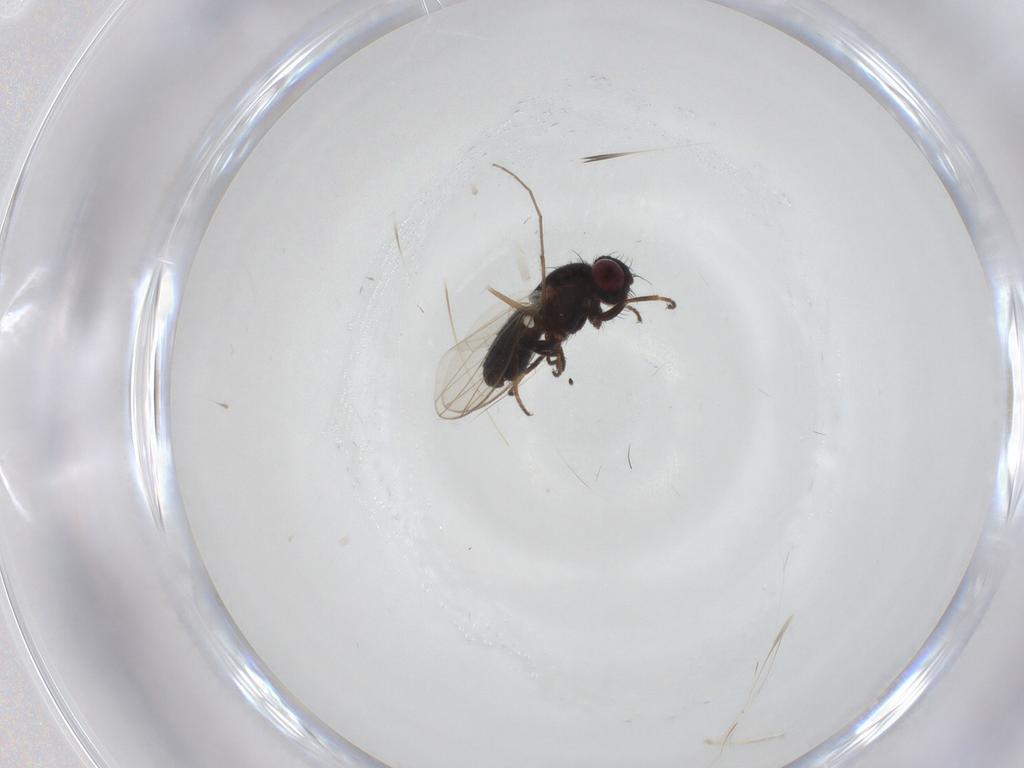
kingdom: Animalia
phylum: Arthropoda
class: Insecta
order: Diptera
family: Carnidae
